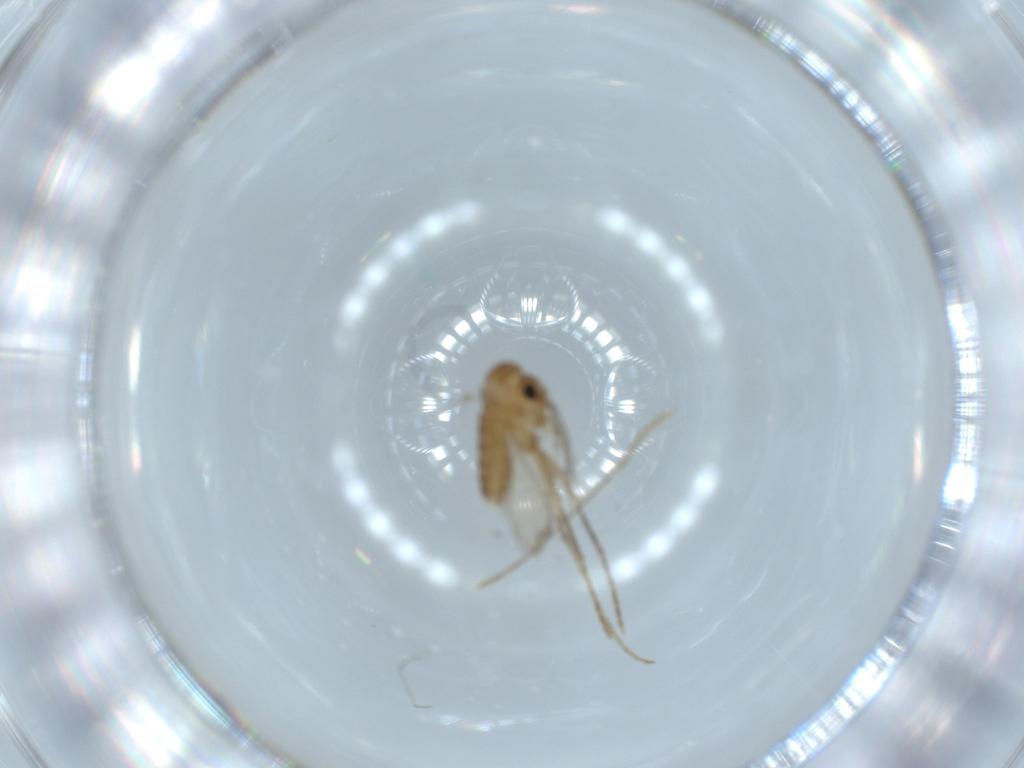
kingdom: Animalia
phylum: Arthropoda
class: Insecta
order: Diptera
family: Psychodidae
